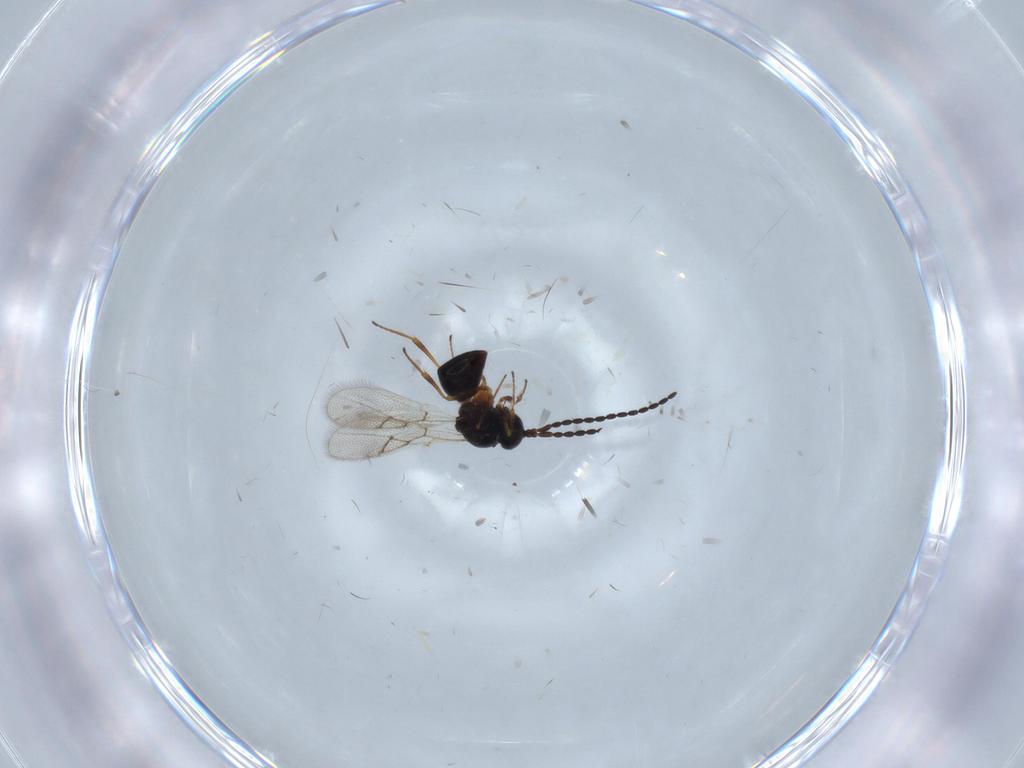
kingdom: Animalia
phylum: Arthropoda
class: Insecta
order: Hymenoptera
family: Figitidae
